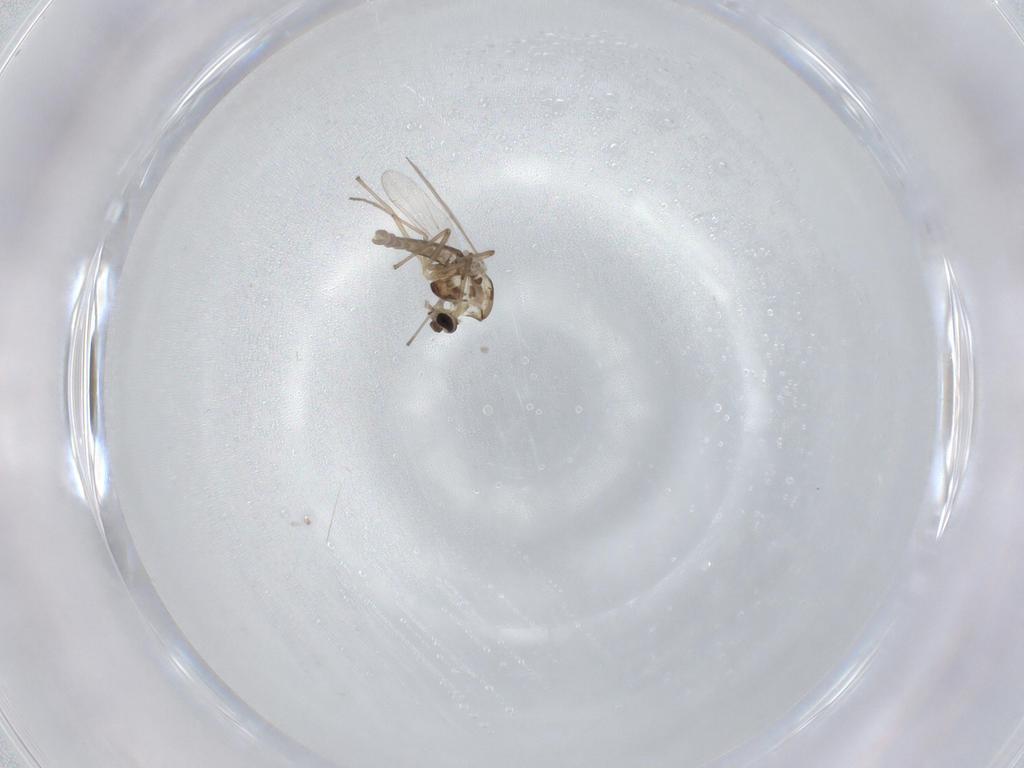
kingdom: Animalia
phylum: Arthropoda
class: Insecta
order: Diptera
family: Chironomidae
